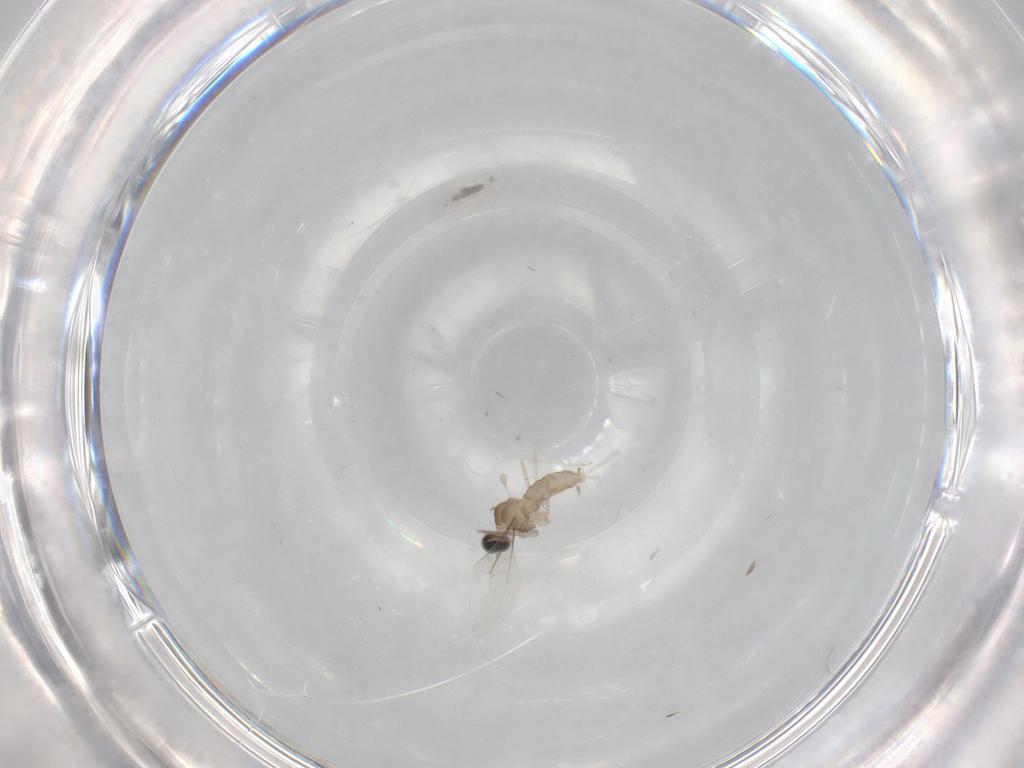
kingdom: Animalia
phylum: Arthropoda
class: Insecta
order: Diptera
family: Cecidomyiidae
